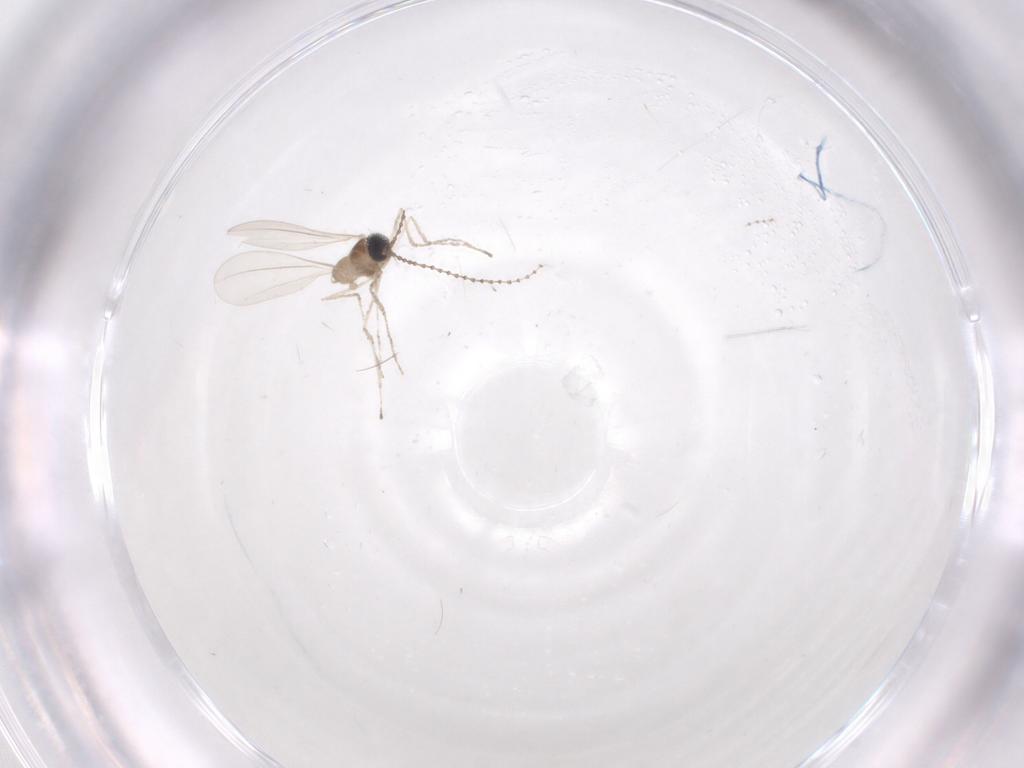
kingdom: Animalia
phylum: Arthropoda
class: Insecta
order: Diptera
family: Cecidomyiidae
